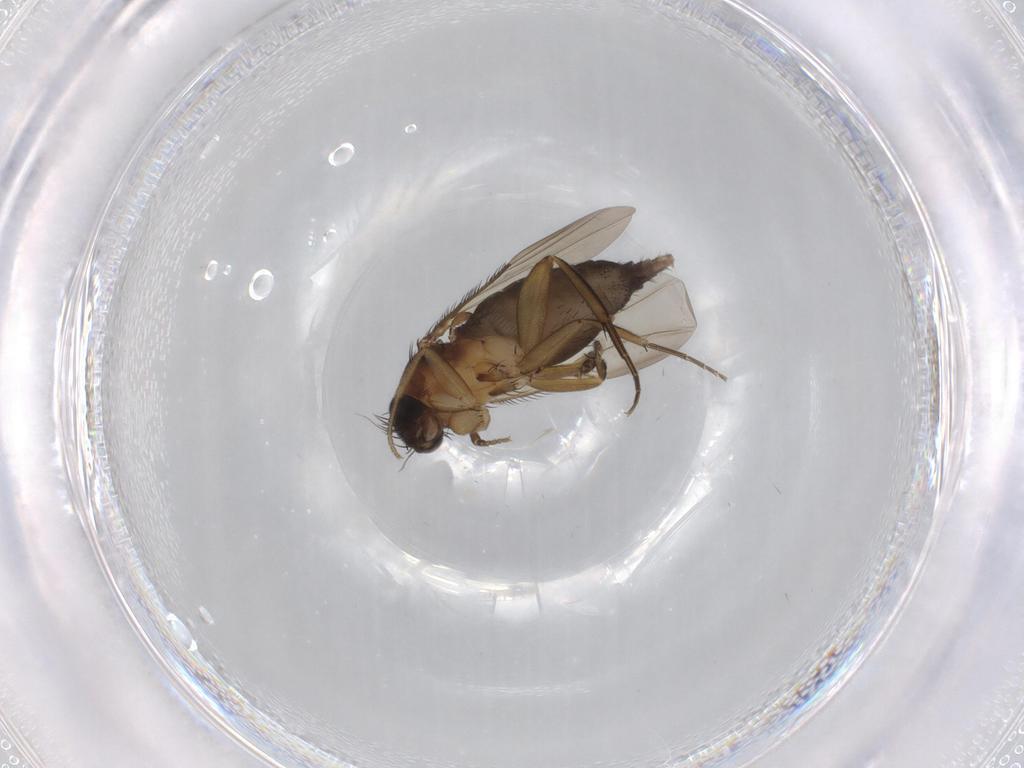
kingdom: Animalia
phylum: Arthropoda
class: Insecta
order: Diptera
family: Phoridae
